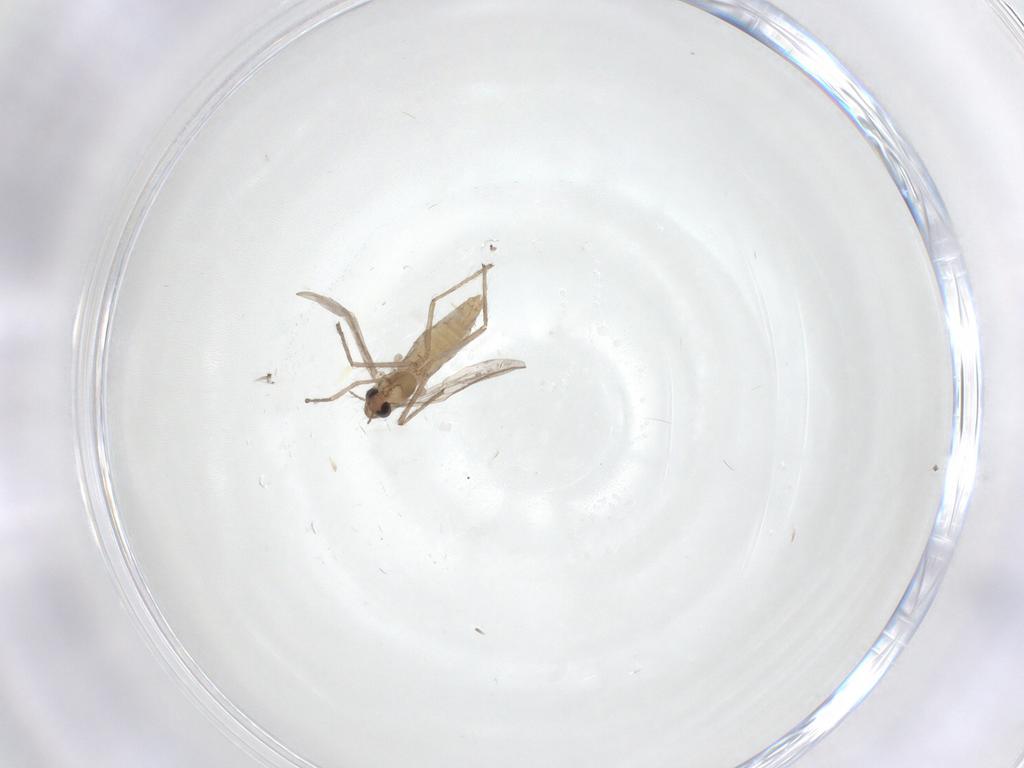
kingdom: Animalia
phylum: Arthropoda
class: Insecta
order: Diptera
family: Chironomidae
